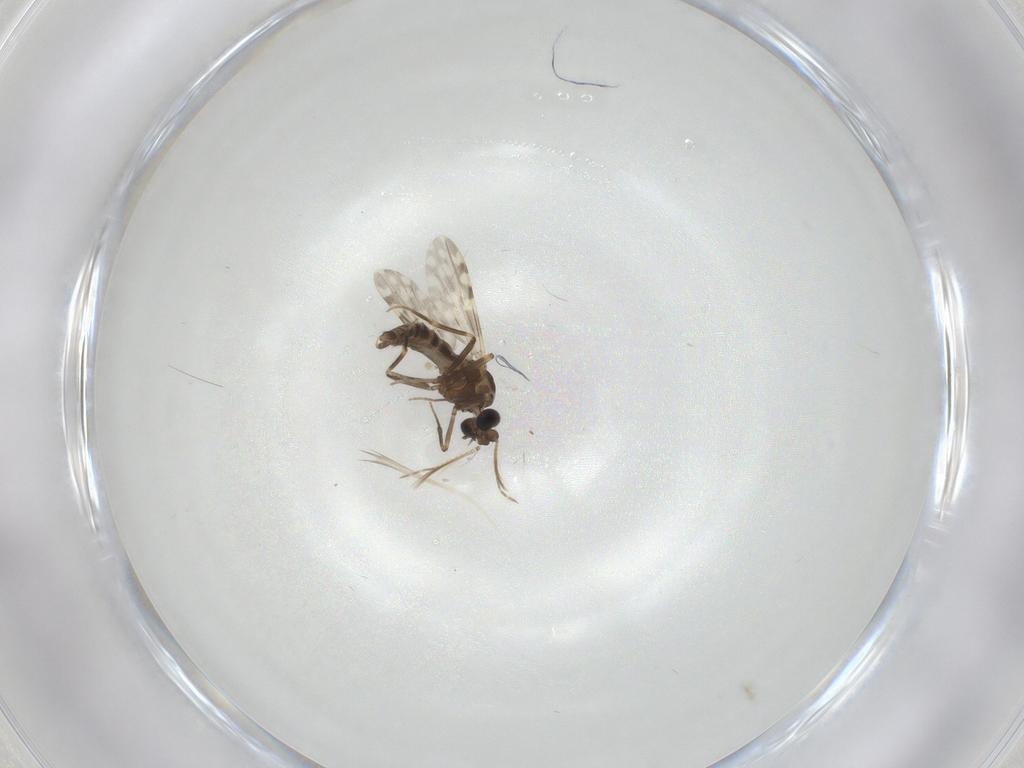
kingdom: Animalia
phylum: Arthropoda
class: Insecta
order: Diptera
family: Ceratopogonidae
